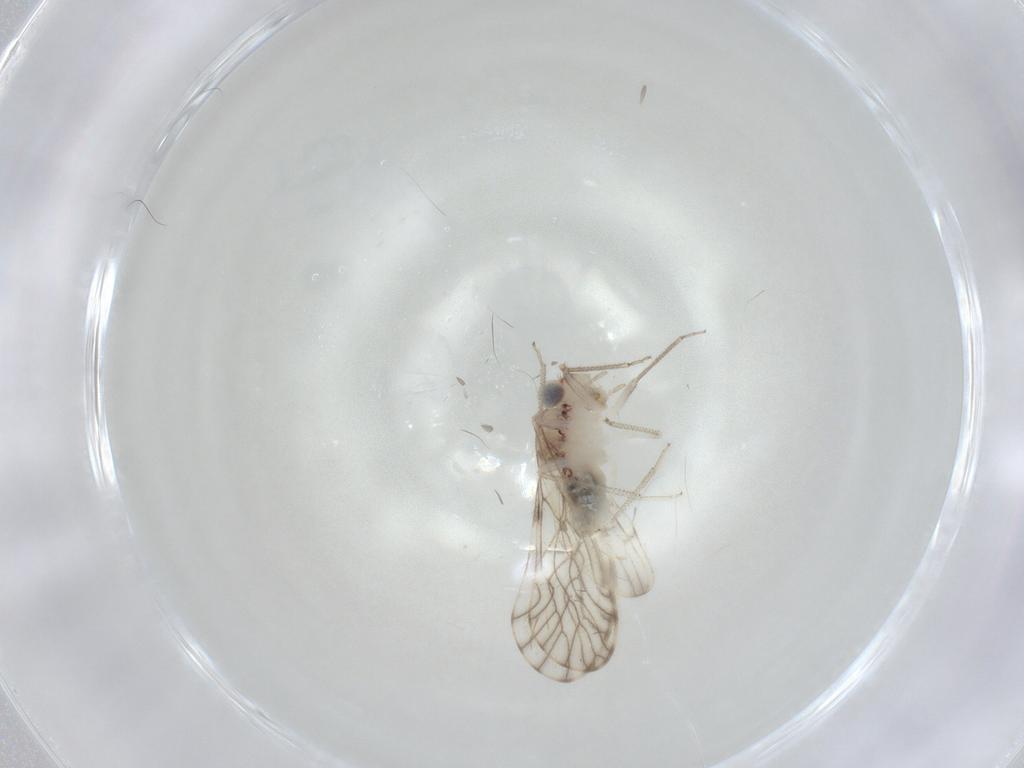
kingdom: Animalia
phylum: Arthropoda
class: Insecta
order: Psocodea
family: Philotarsidae
